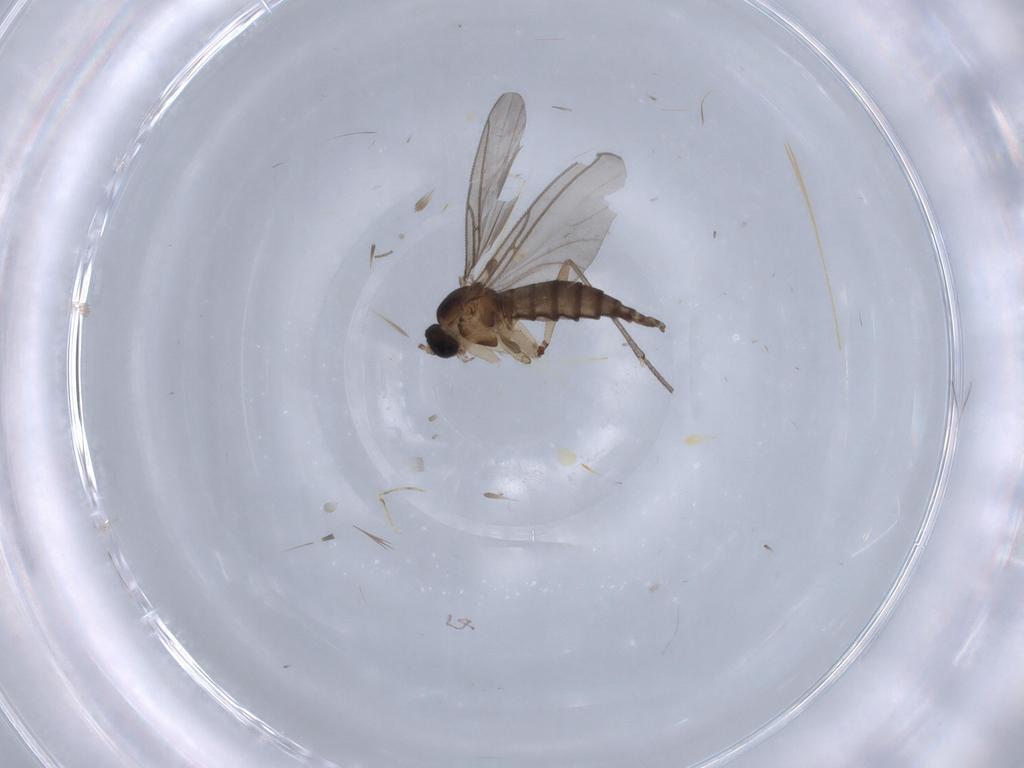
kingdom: Animalia
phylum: Arthropoda
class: Insecta
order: Diptera
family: Sciaridae
